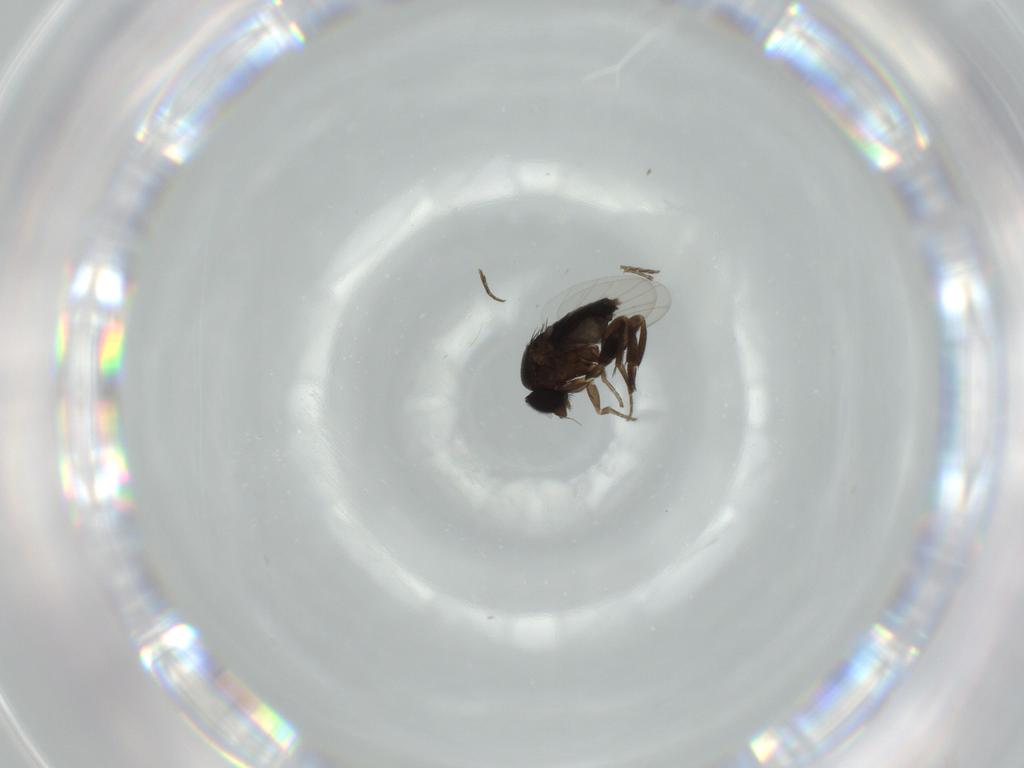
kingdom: Animalia
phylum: Arthropoda
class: Insecta
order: Diptera
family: Phoridae
